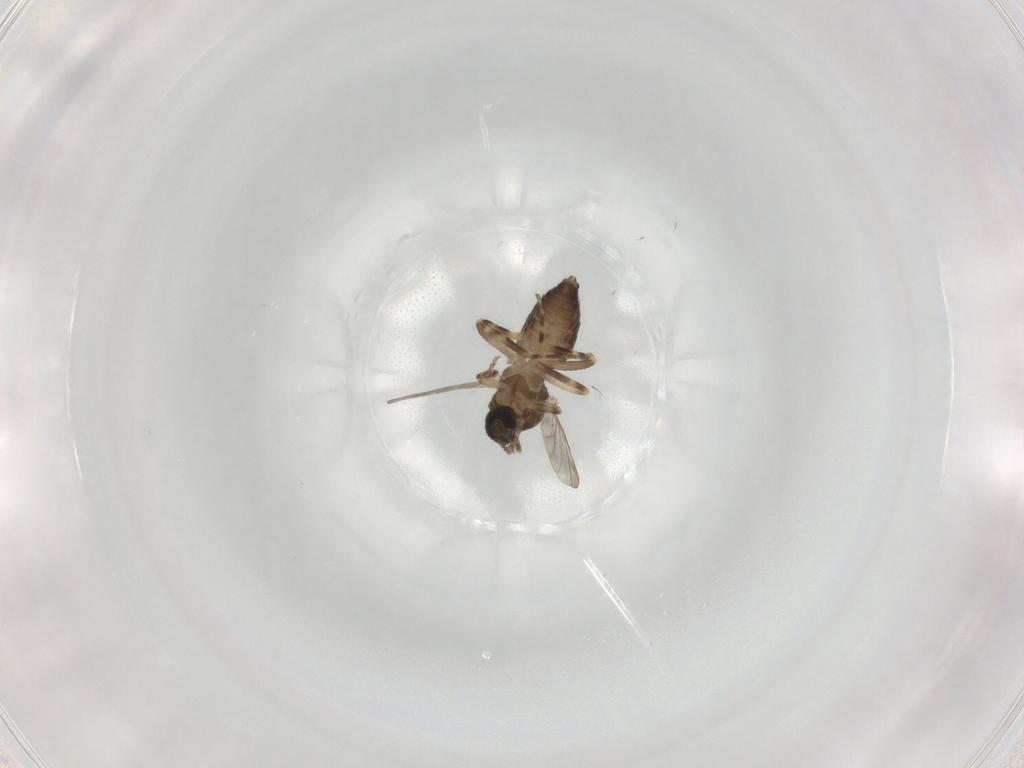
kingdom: Animalia
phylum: Arthropoda
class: Insecta
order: Diptera
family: Ceratopogonidae
